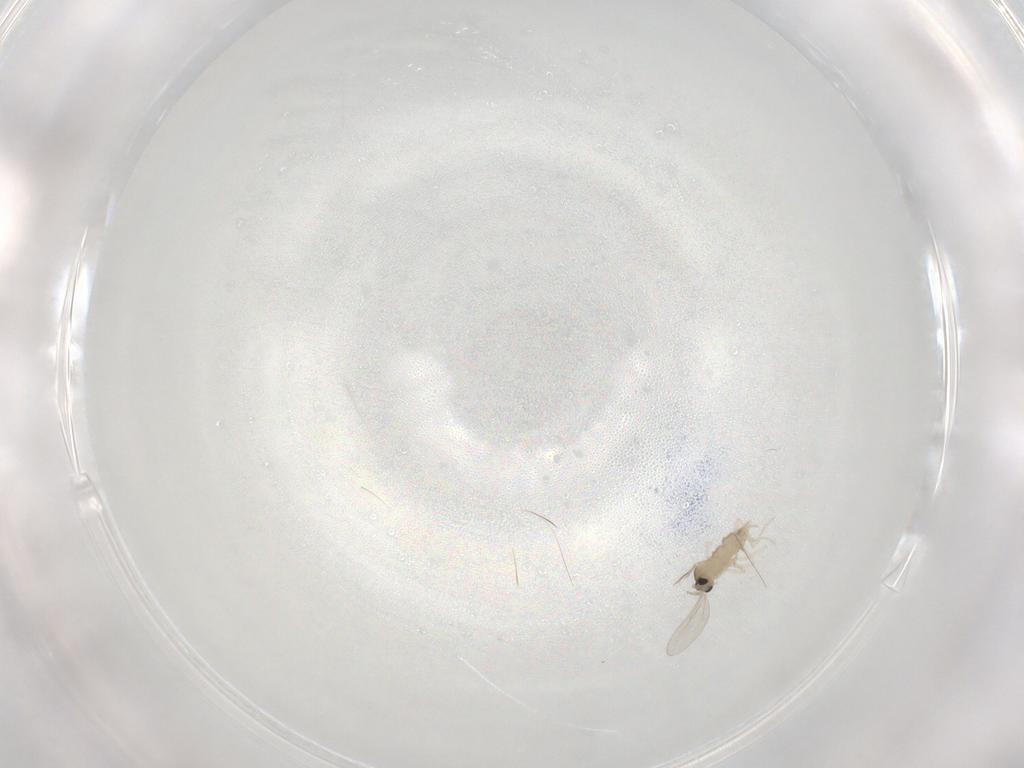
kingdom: Animalia
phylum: Arthropoda
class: Insecta
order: Diptera
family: Cecidomyiidae
